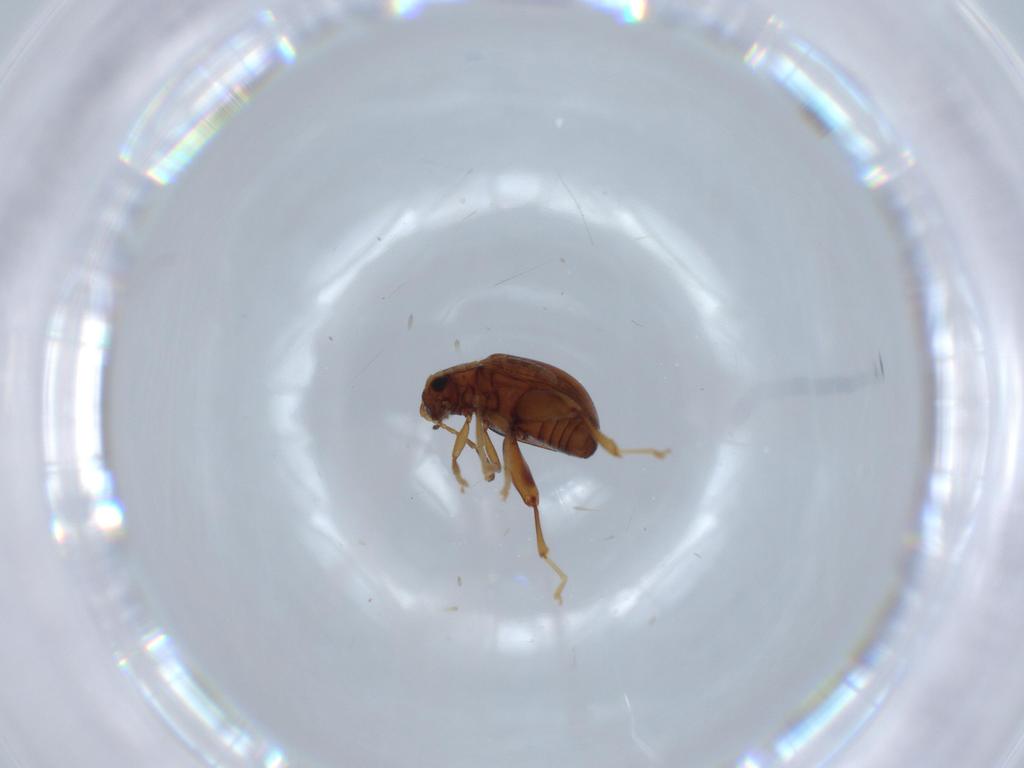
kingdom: Animalia
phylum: Arthropoda
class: Insecta
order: Coleoptera
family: Chrysomelidae
